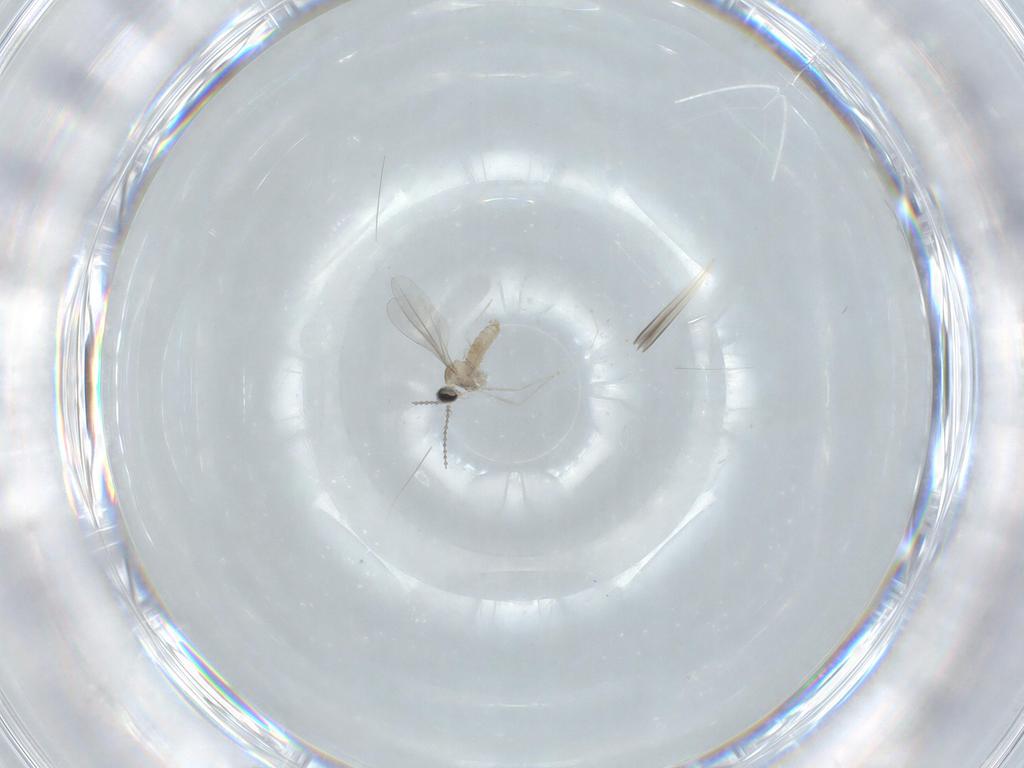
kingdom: Animalia
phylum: Arthropoda
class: Insecta
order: Diptera
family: Cecidomyiidae
